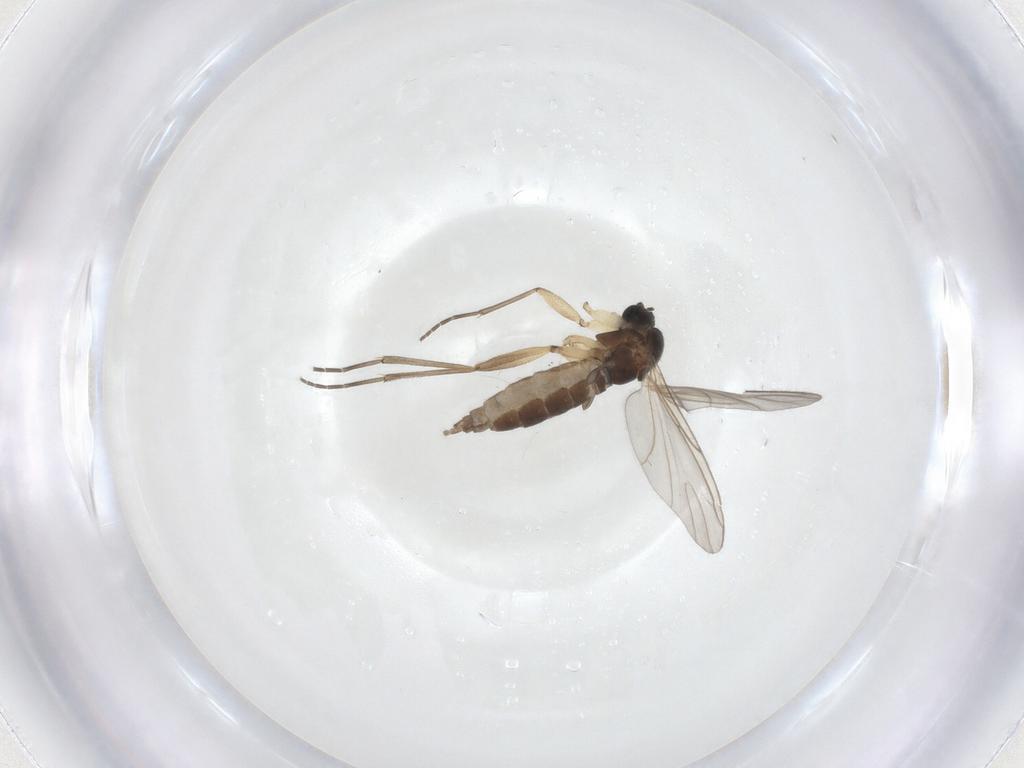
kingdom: Animalia
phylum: Arthropoda
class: Insecta
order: Diptera
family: Sciaridae
